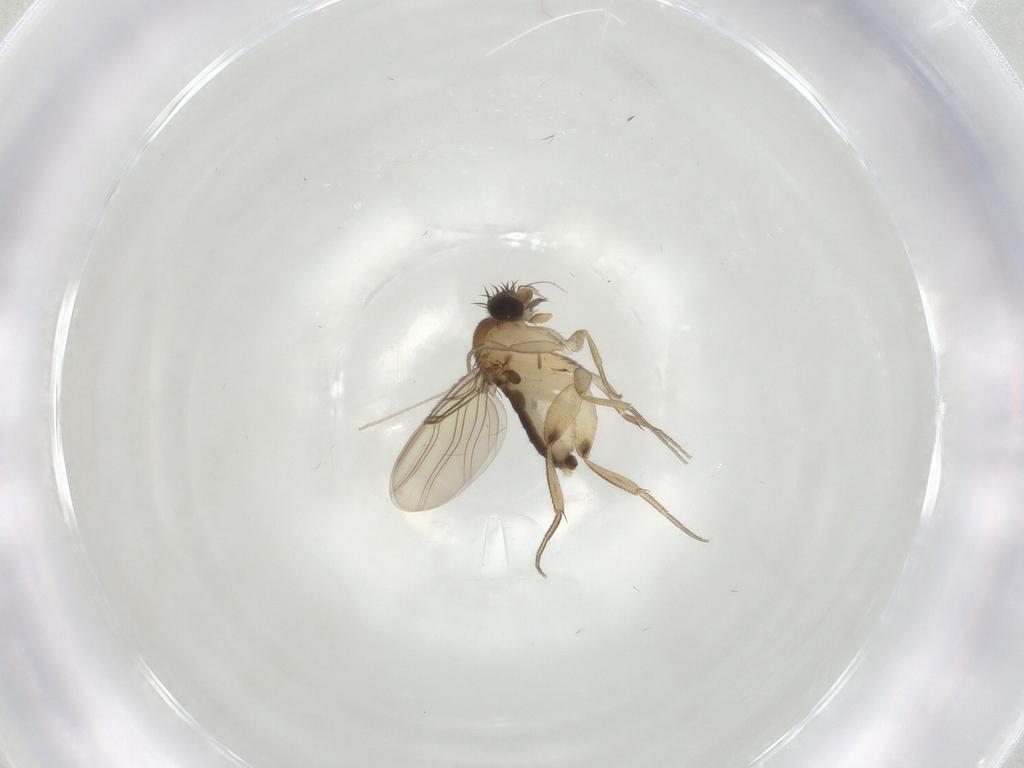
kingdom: Animalia
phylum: Arthropoda
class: Insecta
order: Diptera
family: Phoridae
